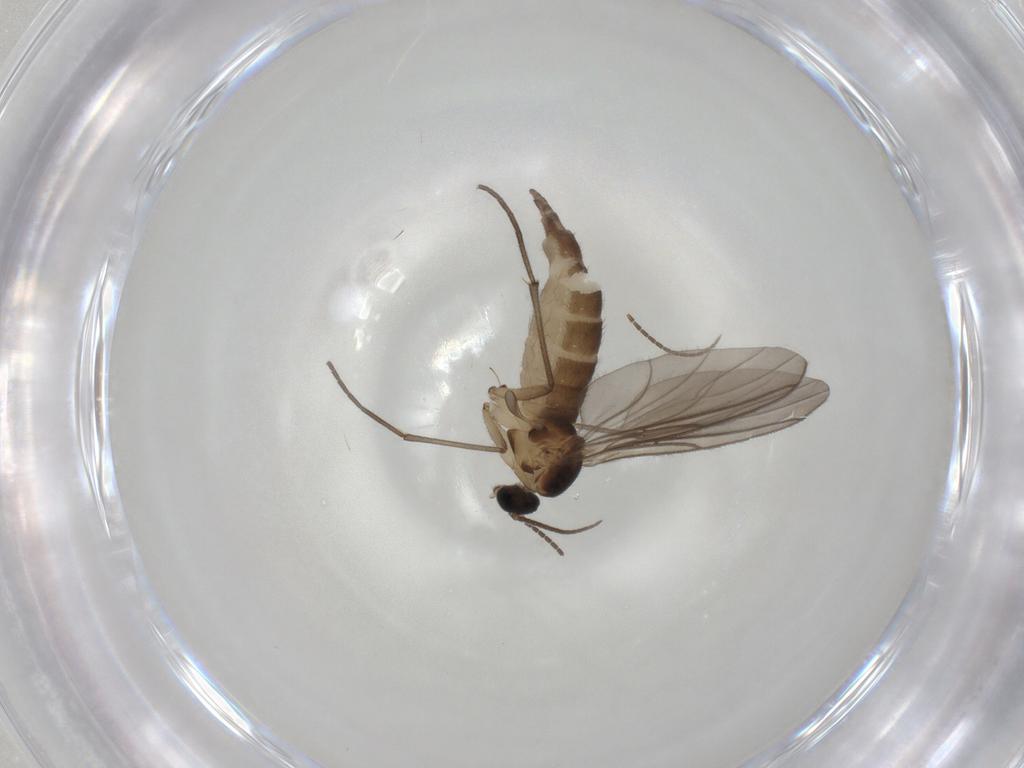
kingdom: Animalia
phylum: Arthropoda
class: Insecta
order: Diptera
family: Sciaridae
